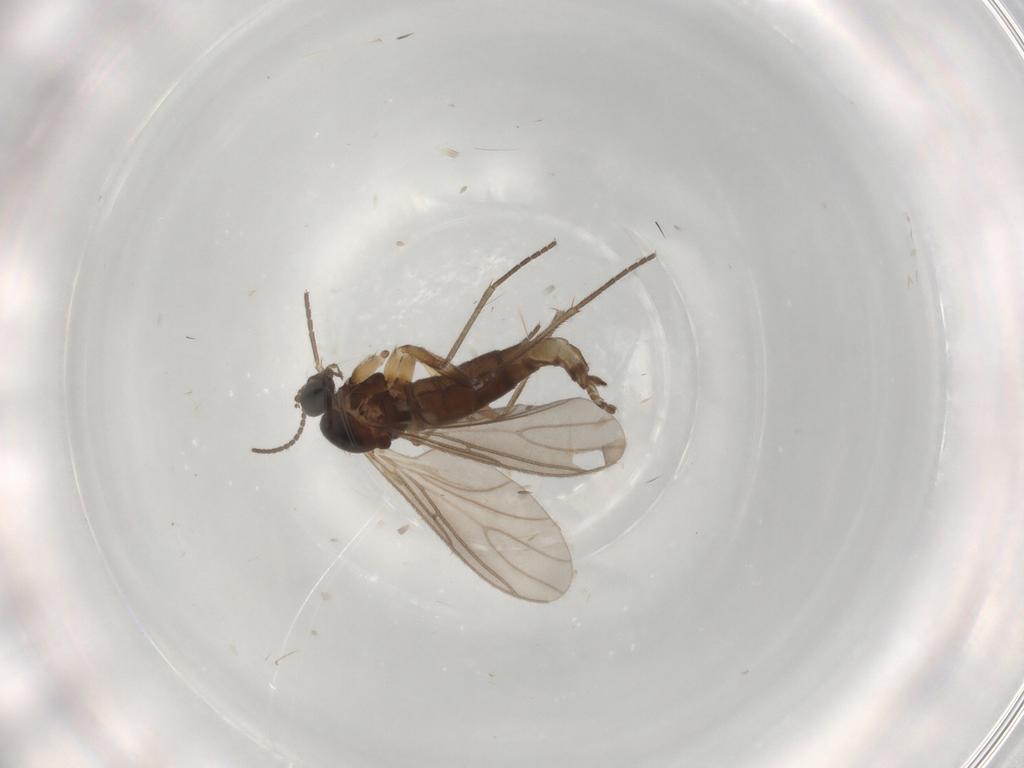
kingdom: Animalia
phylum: Arthropoda
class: Insecta
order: Diptera
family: Sciaridae
